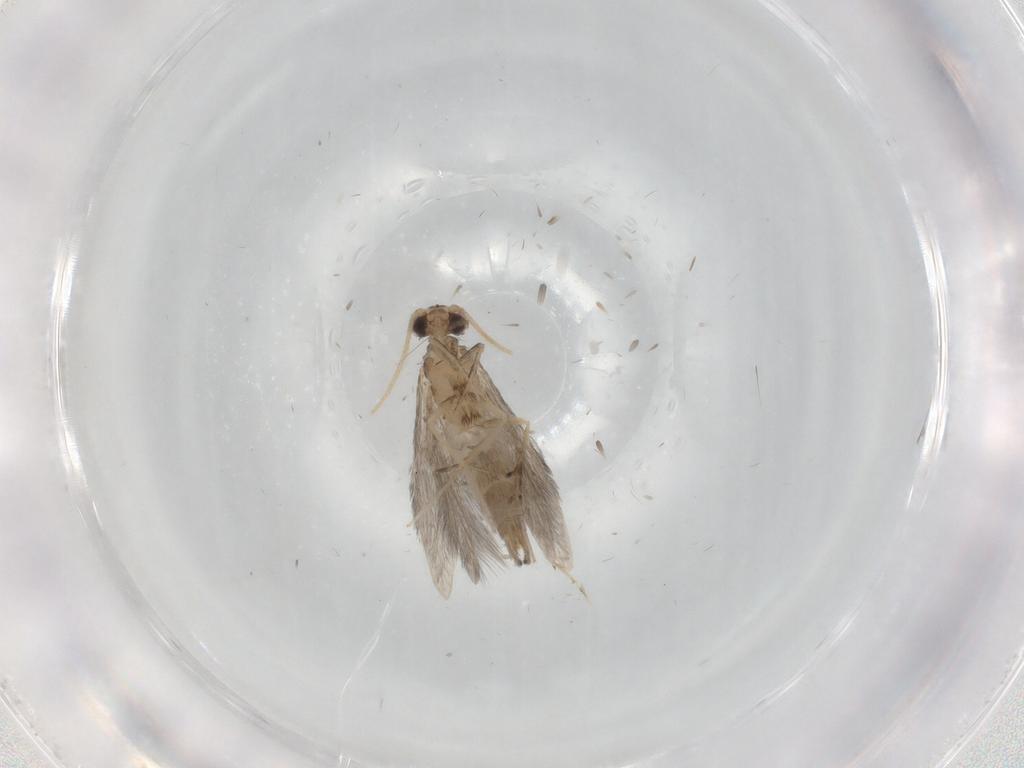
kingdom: Animalia
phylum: Arthropoda
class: Insecta
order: Trichoptera
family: Hydroptilidae
